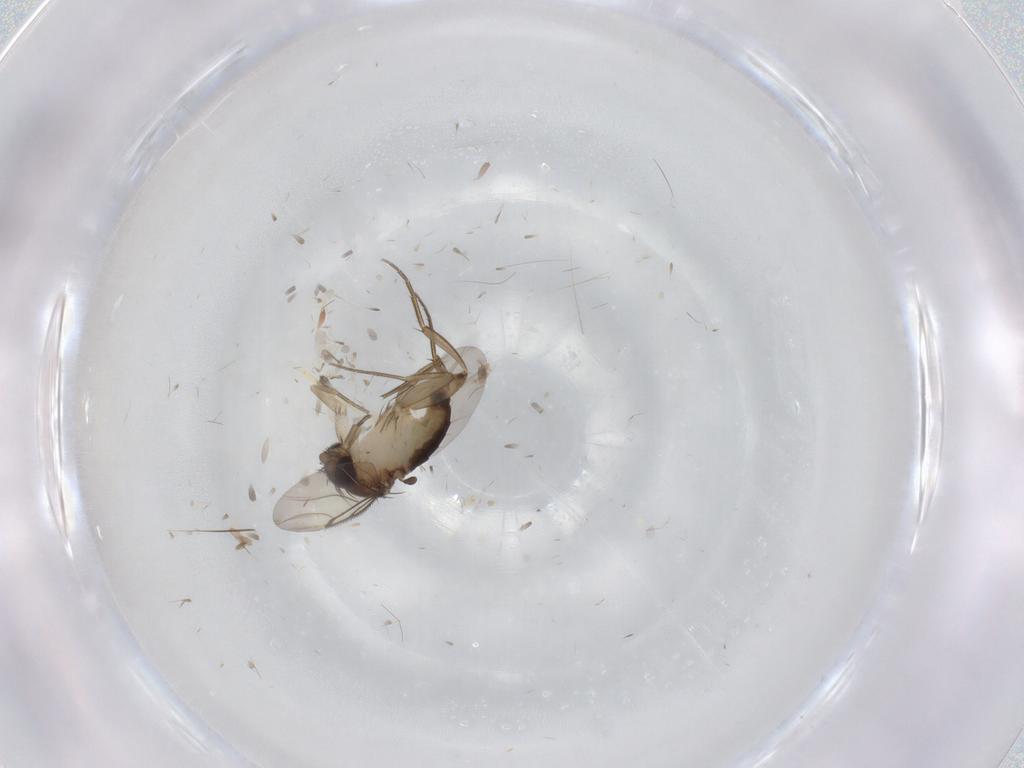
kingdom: Animalia
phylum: Arthropoda
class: Insecta
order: Diptera
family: Phoridae
